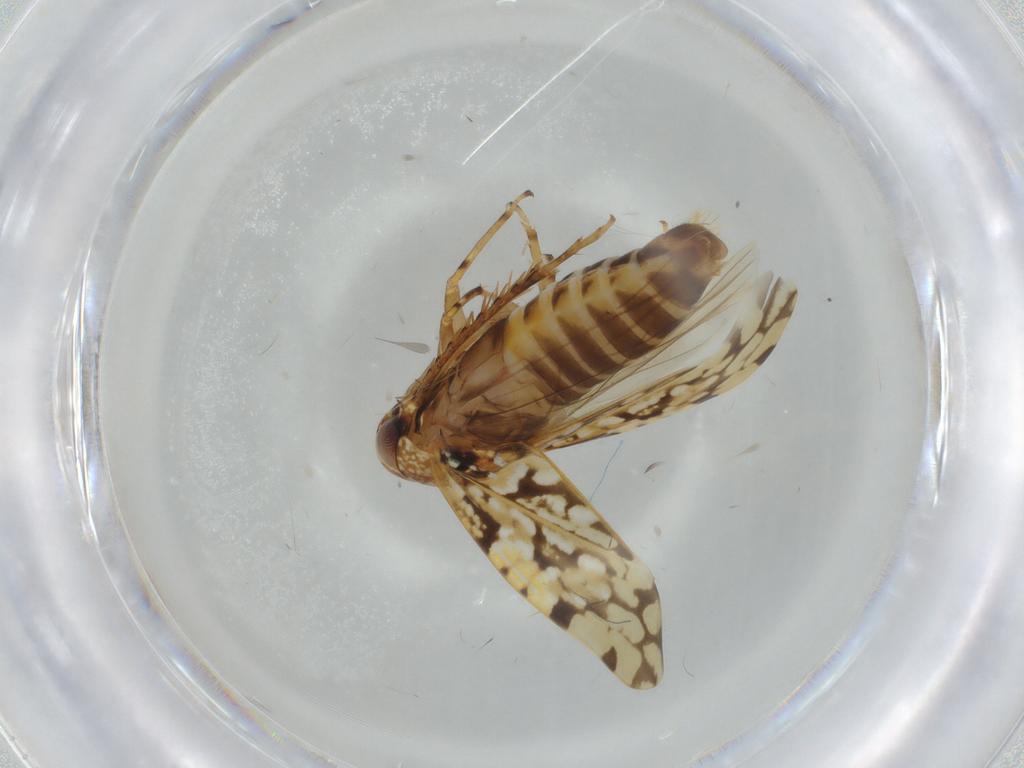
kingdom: Animalia
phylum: Arthropoda
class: Insecta
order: Hemiptera
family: Cicadellidae
